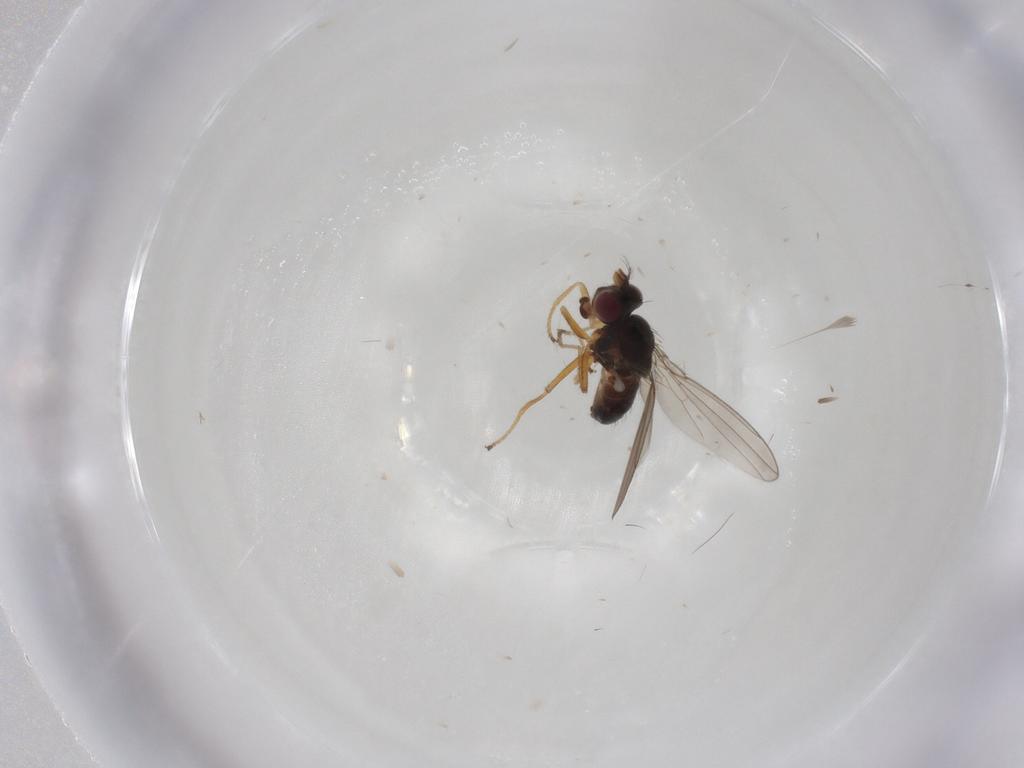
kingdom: Animalia
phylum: Arthropoda
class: Insecta
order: Diptera
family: Ephydridae
